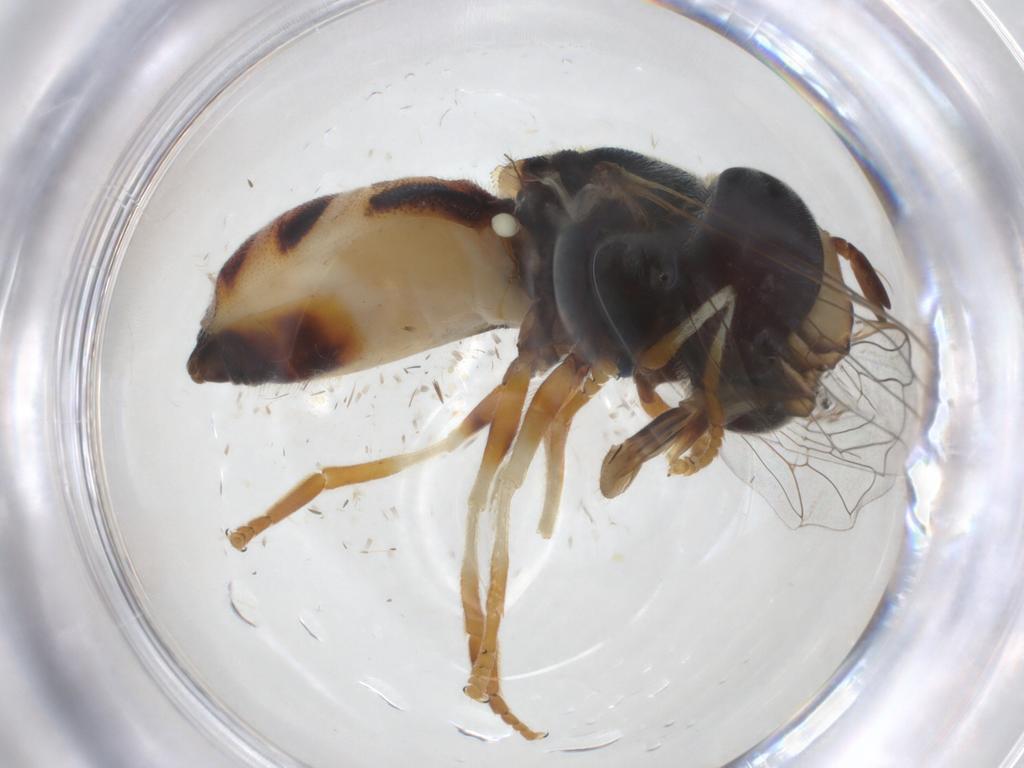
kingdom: Animalia
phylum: Arthropoda
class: Insecta
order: Diptera
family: Syrphidae
